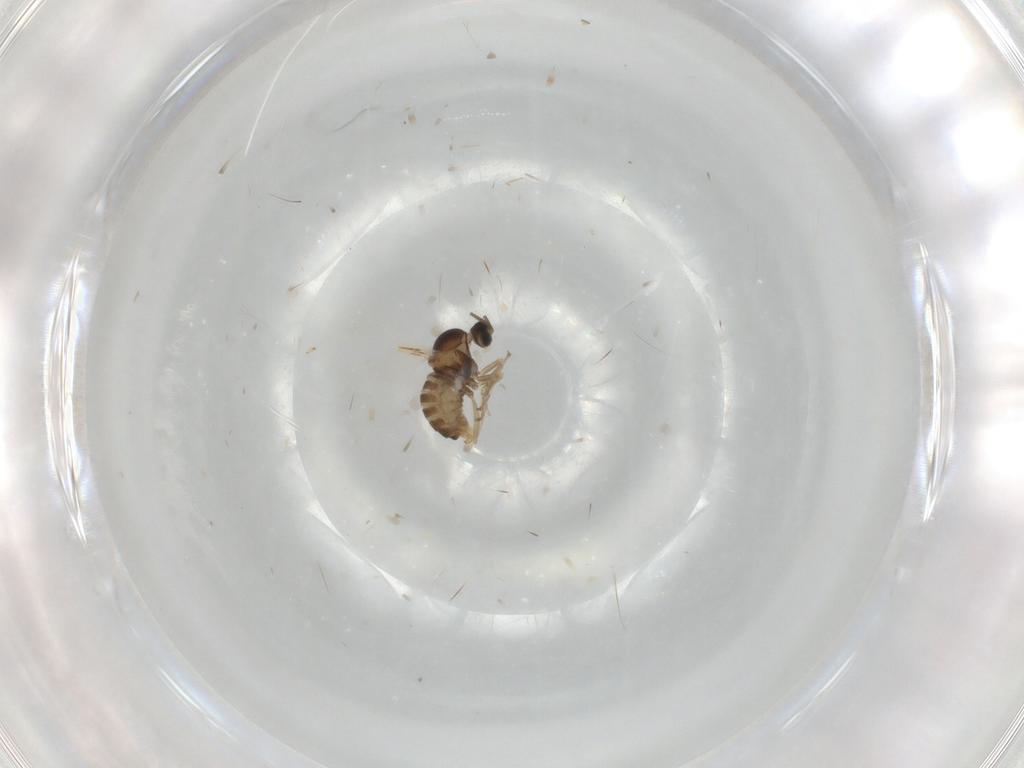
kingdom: Animalia
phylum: Arthropoda
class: Insecta
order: Diptera
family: Cecidomyiidae
